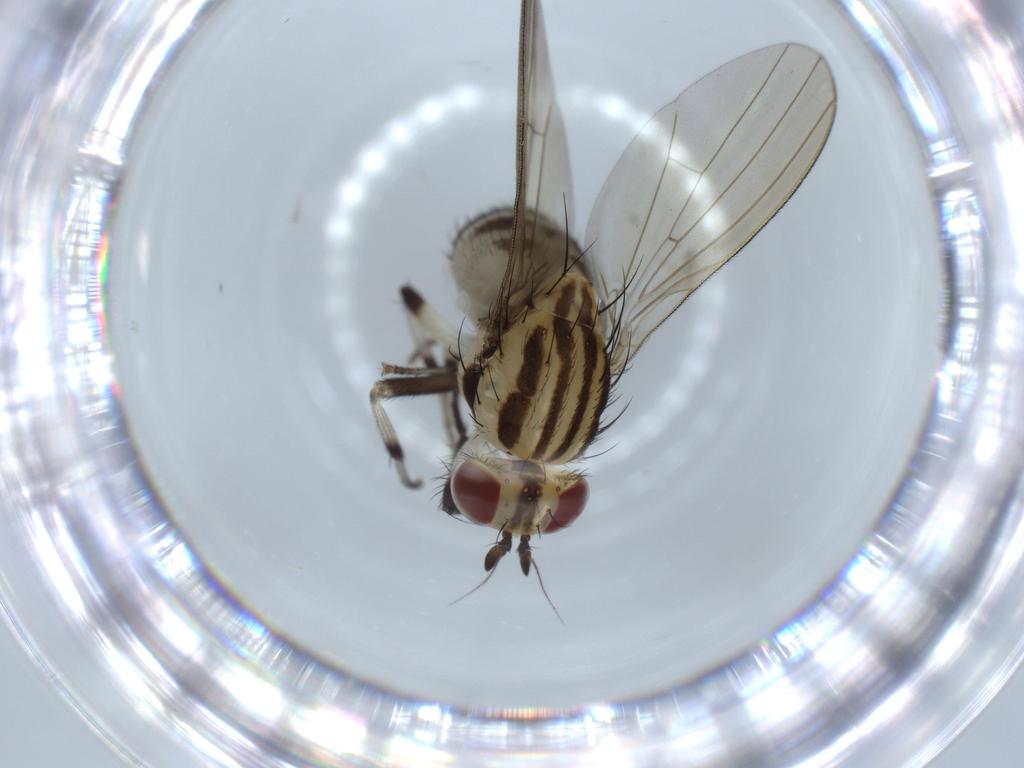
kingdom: Animalia
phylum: Arthropoda
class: Insecta
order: Diptera
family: Lauxaniidae
